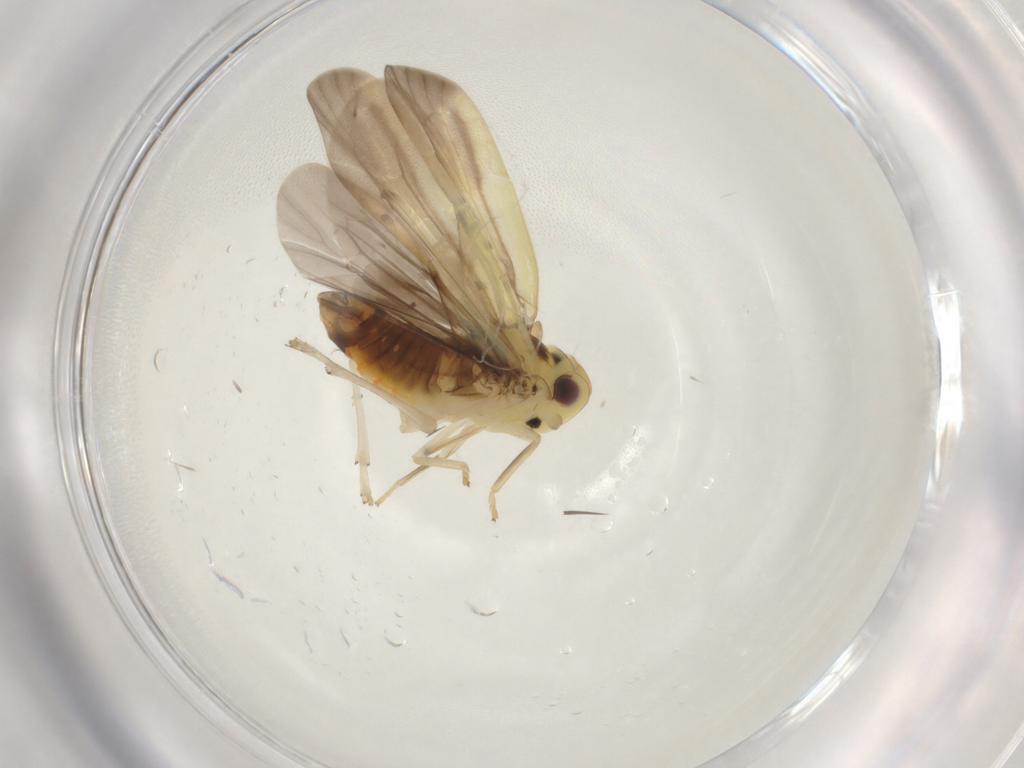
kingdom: Animalia
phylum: Arthropoda
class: Insecta
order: Hemiptera
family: Achilidae
